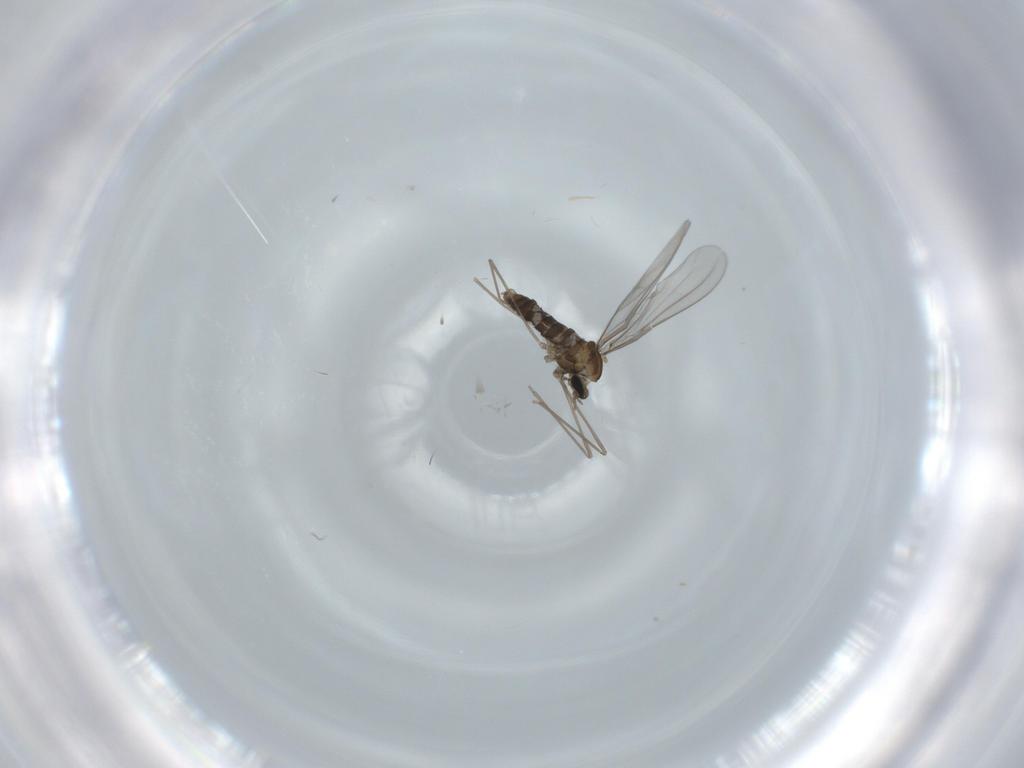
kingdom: Animalia
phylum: Arthropoda
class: Insecta
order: Diptera
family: Cecidomyiidae
